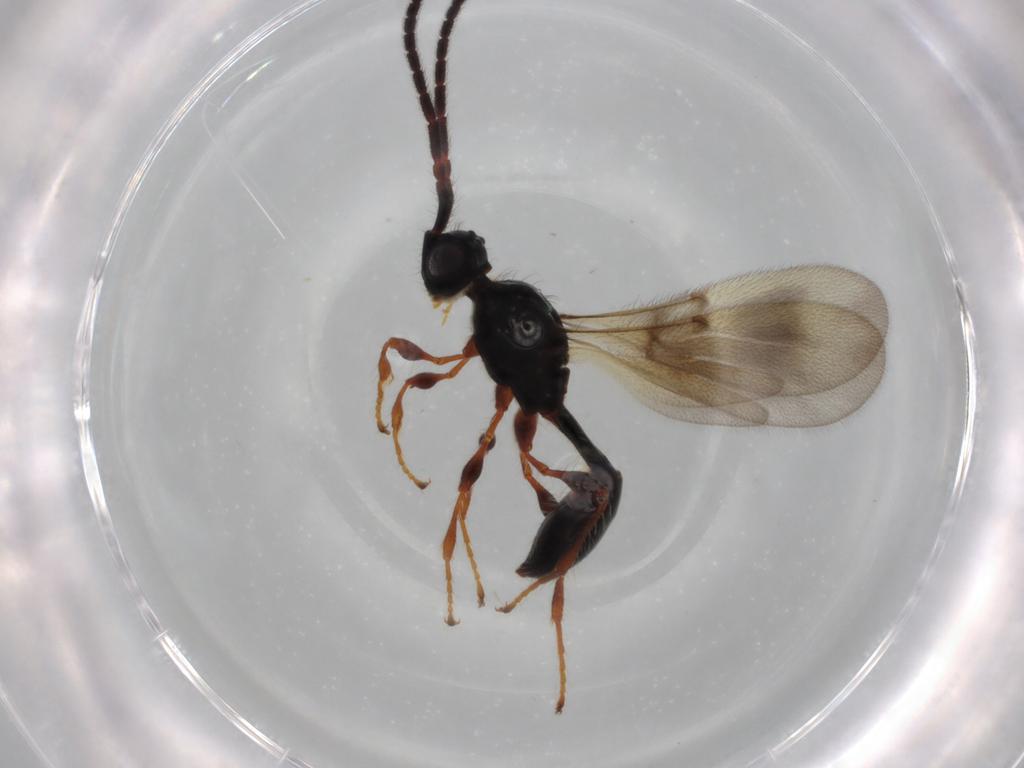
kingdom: Animalia
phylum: Arthropoda
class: Insecta
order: Hymenoptera
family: Diapriidae
